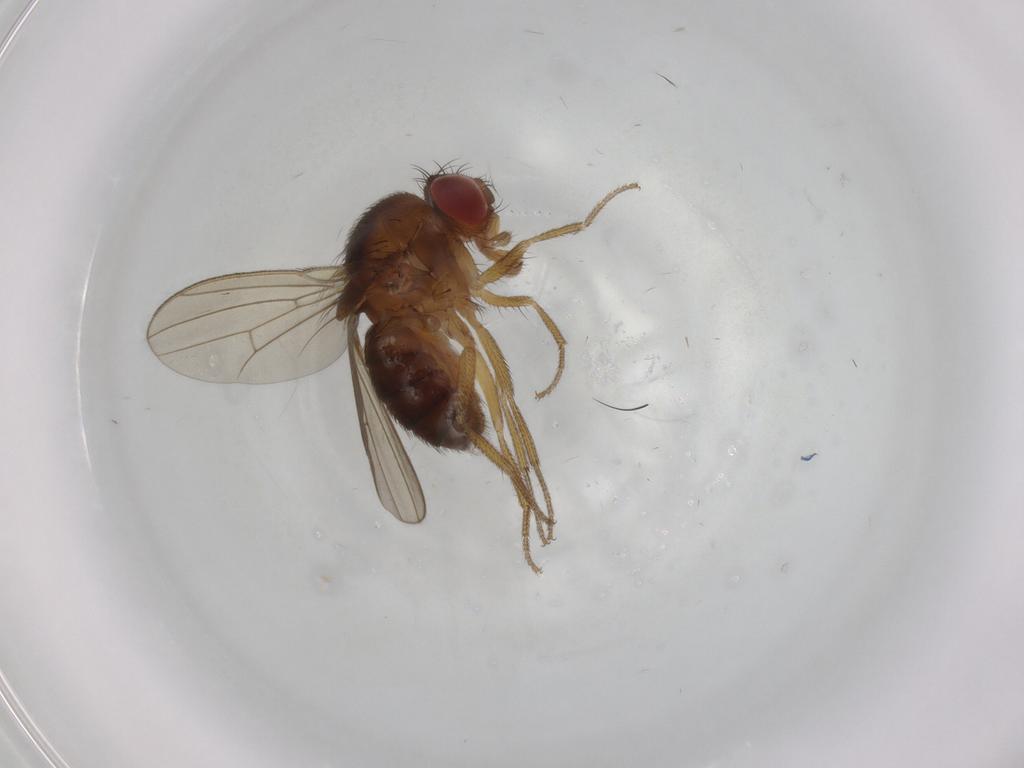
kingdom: Animalia
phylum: Arthropoda
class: Insecta
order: Diptera
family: Drosophilidae
